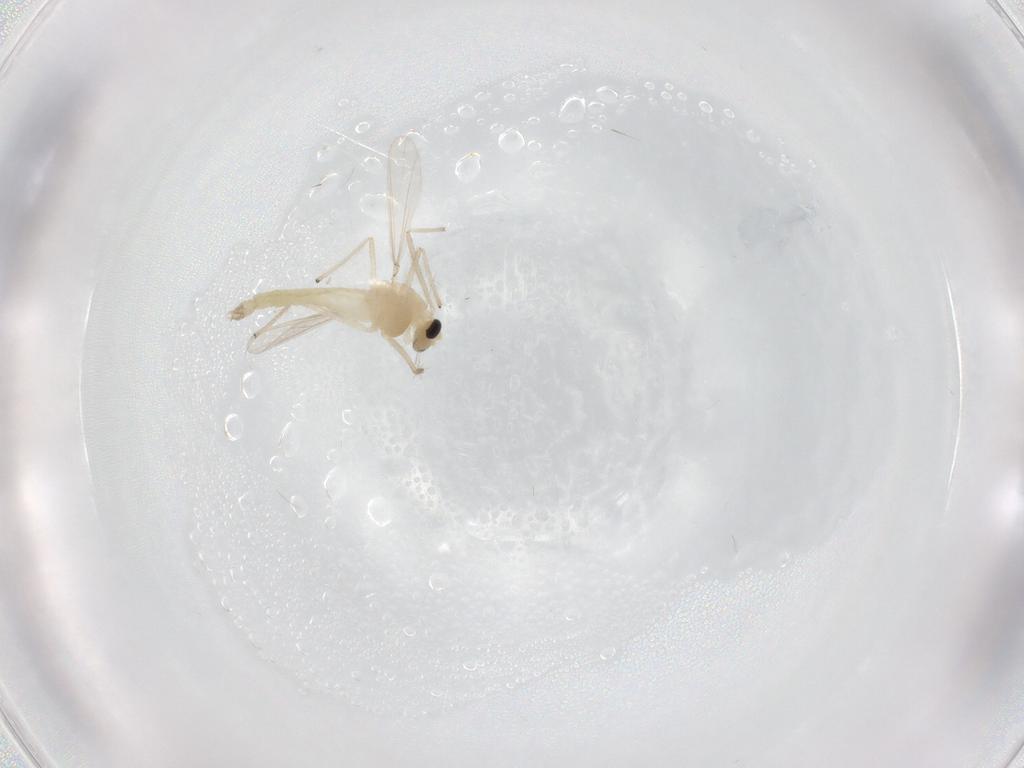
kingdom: Animalia
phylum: Arthropoda
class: Insecta
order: Diptera
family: Chironomidae
